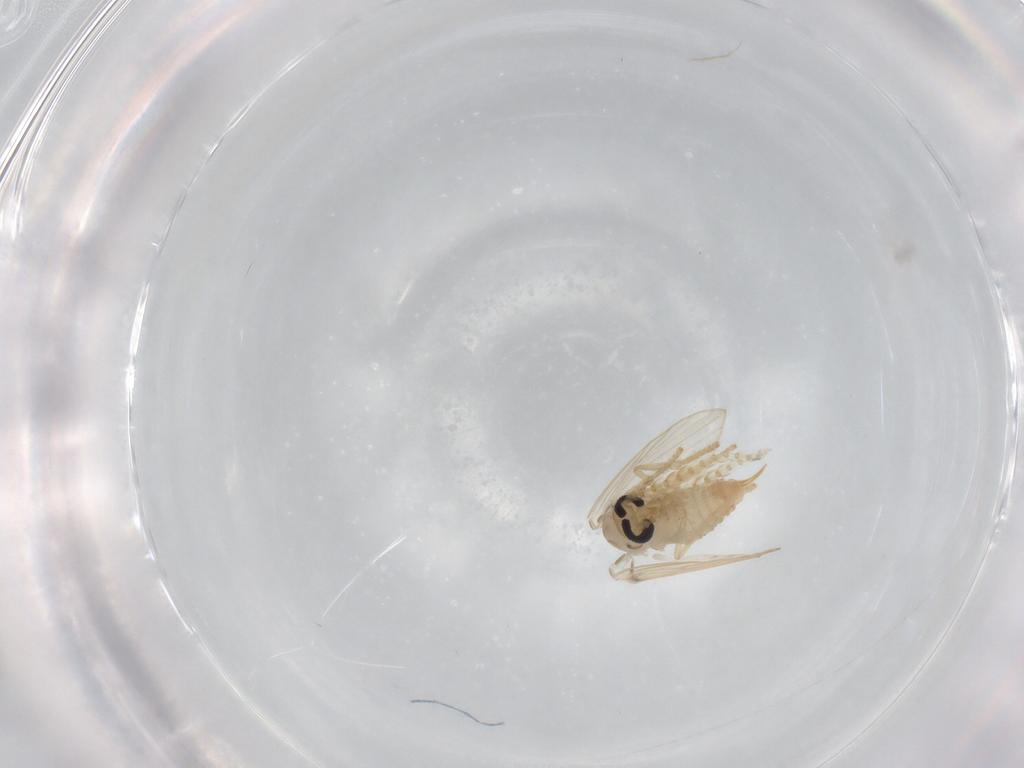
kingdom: Animalia
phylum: Arthropoda
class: Insecta
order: Diptera
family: Psychodidae
